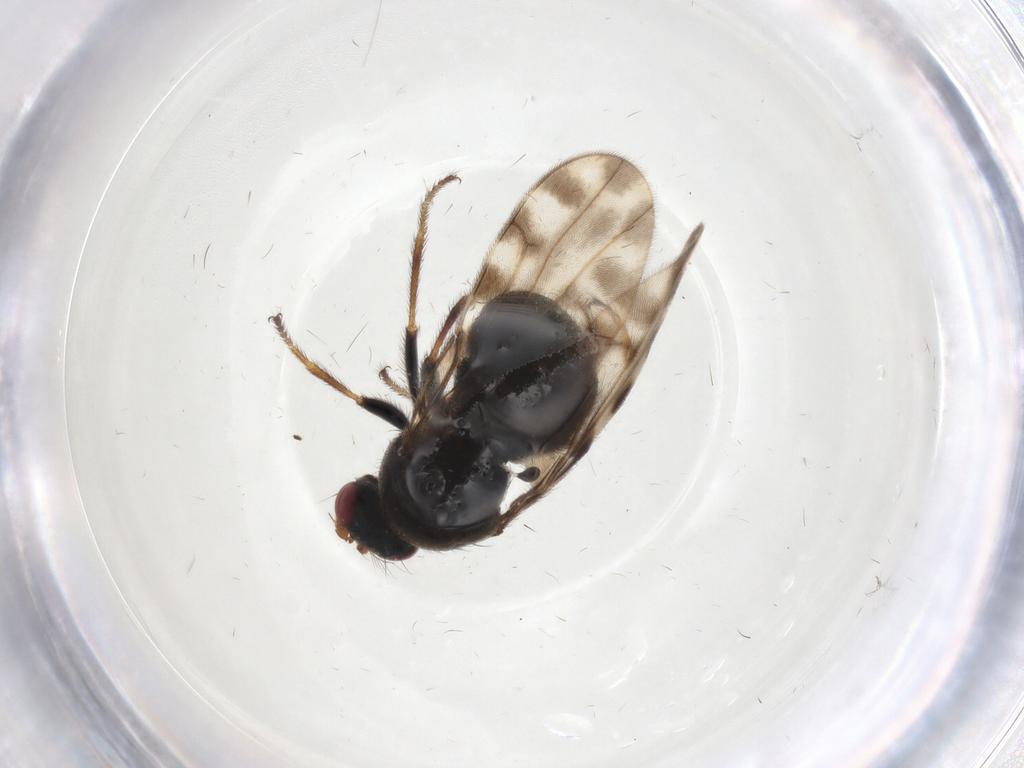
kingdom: Animalia
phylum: Arthropoda
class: Insecta
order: Diptera
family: Ephydridae
